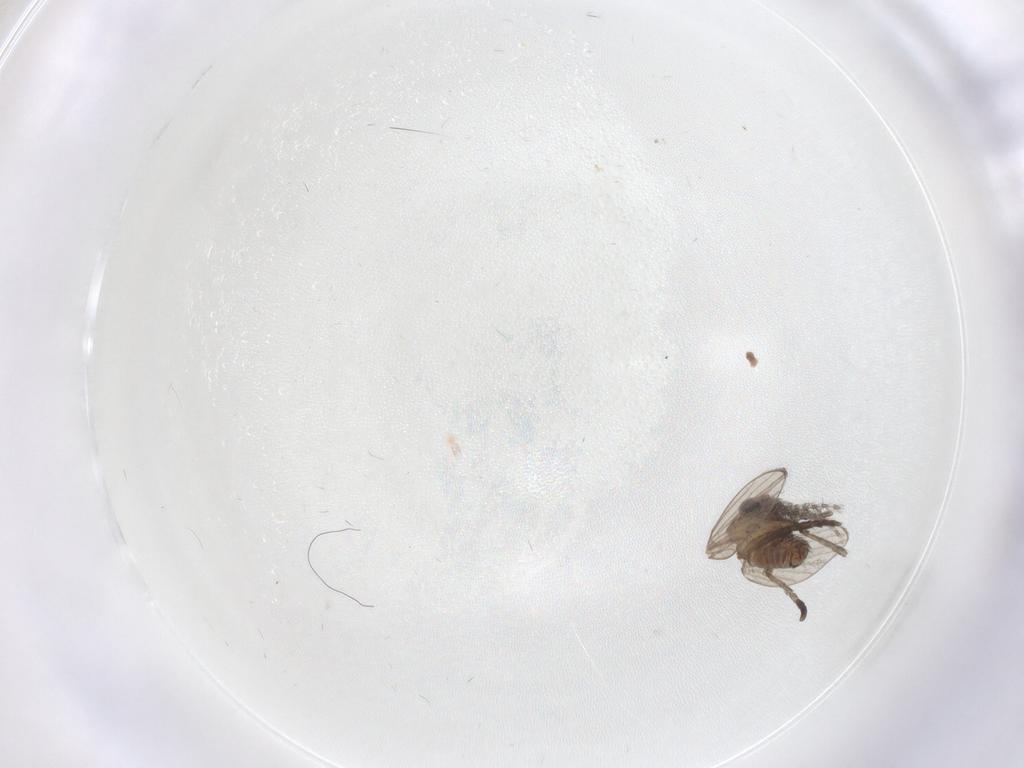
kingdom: Animalia
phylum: Arthropoda
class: Insecta
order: Diptera
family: Psychodidae
